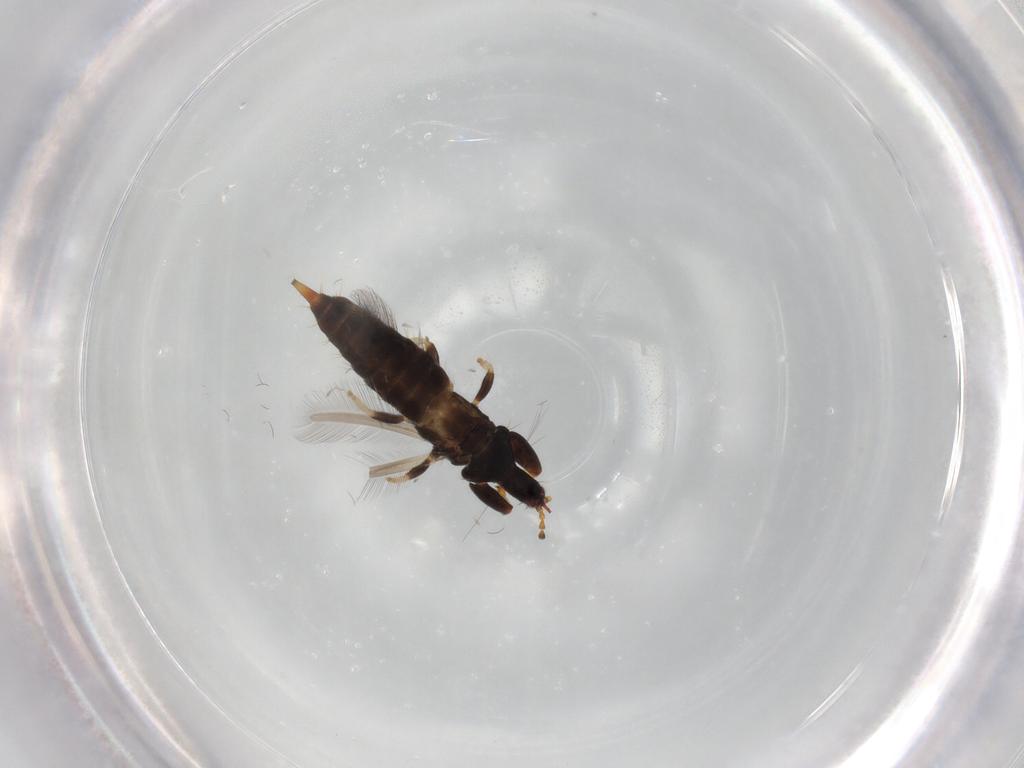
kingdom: Animalia
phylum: Arthropoda
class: Insecta
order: Thysanoptera
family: Phlaeothripidae
